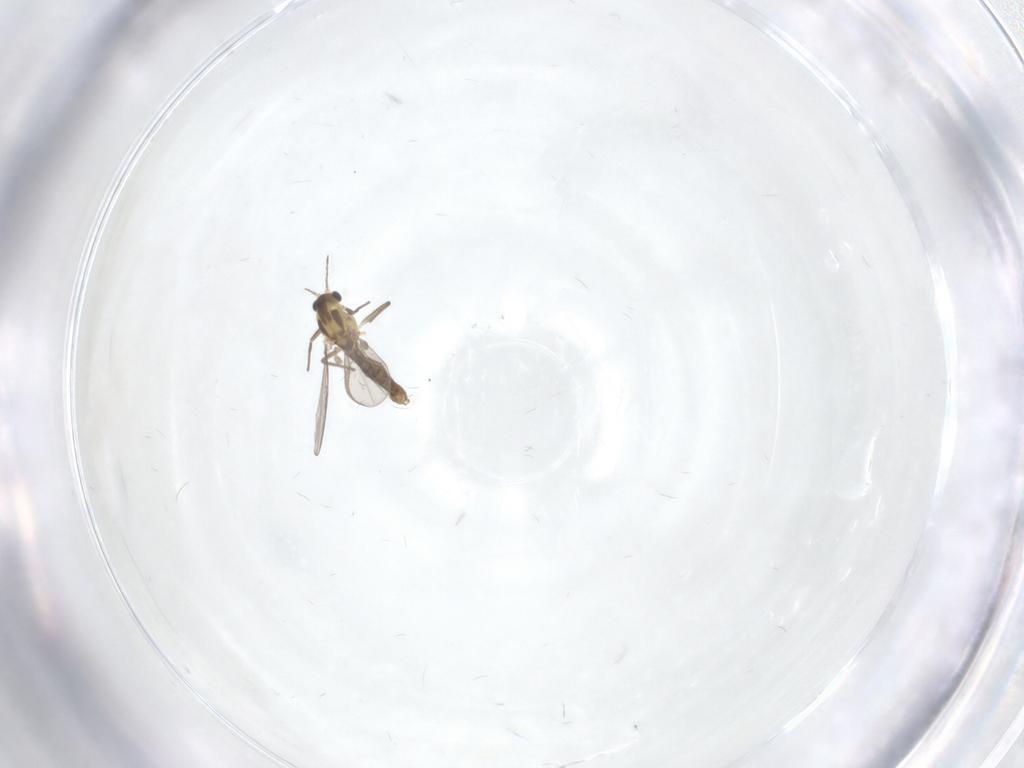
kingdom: Animalia
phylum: Arthropoda
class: Insecta
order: Diptera
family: Chironomidae
